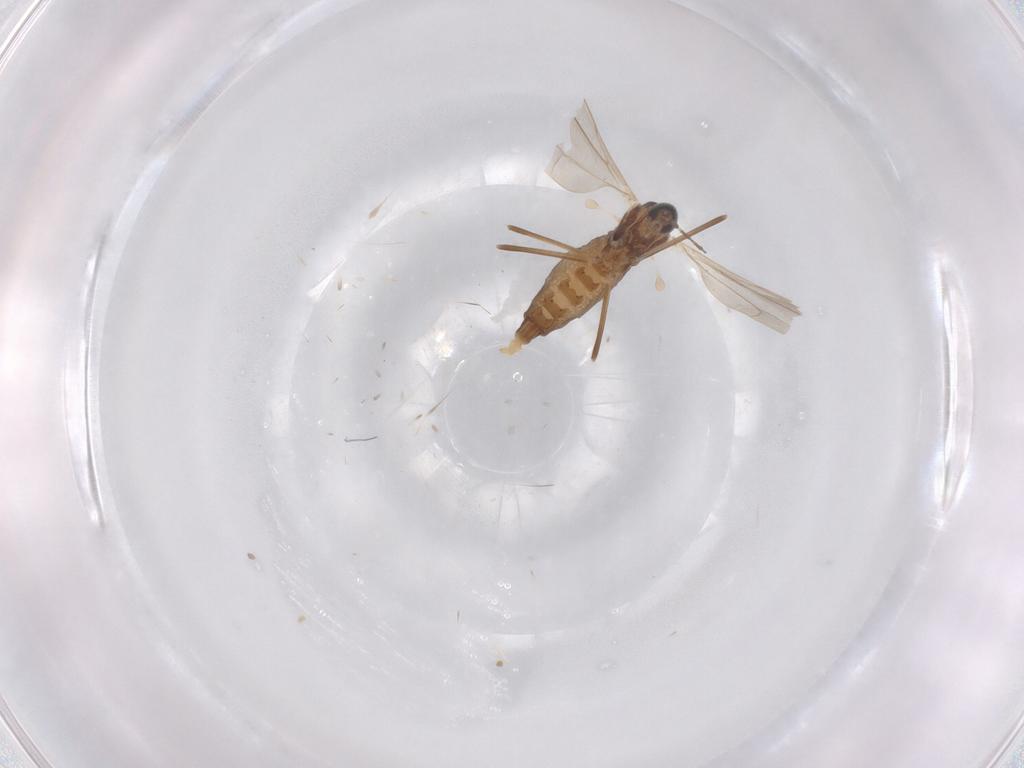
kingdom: Animalia
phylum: Arthropoda
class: Insecta
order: Diptera
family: Cecidomyiidae
